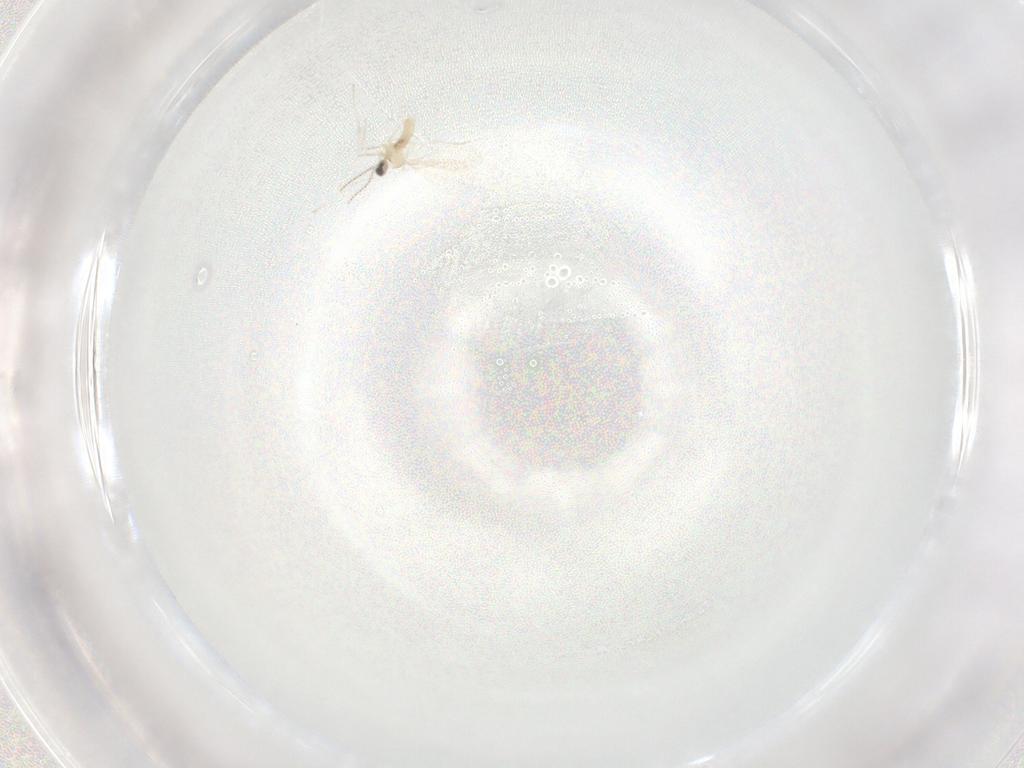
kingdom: Animalia
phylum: Arthropoda
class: Insecta
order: Diptera
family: Cecidomyiidae
